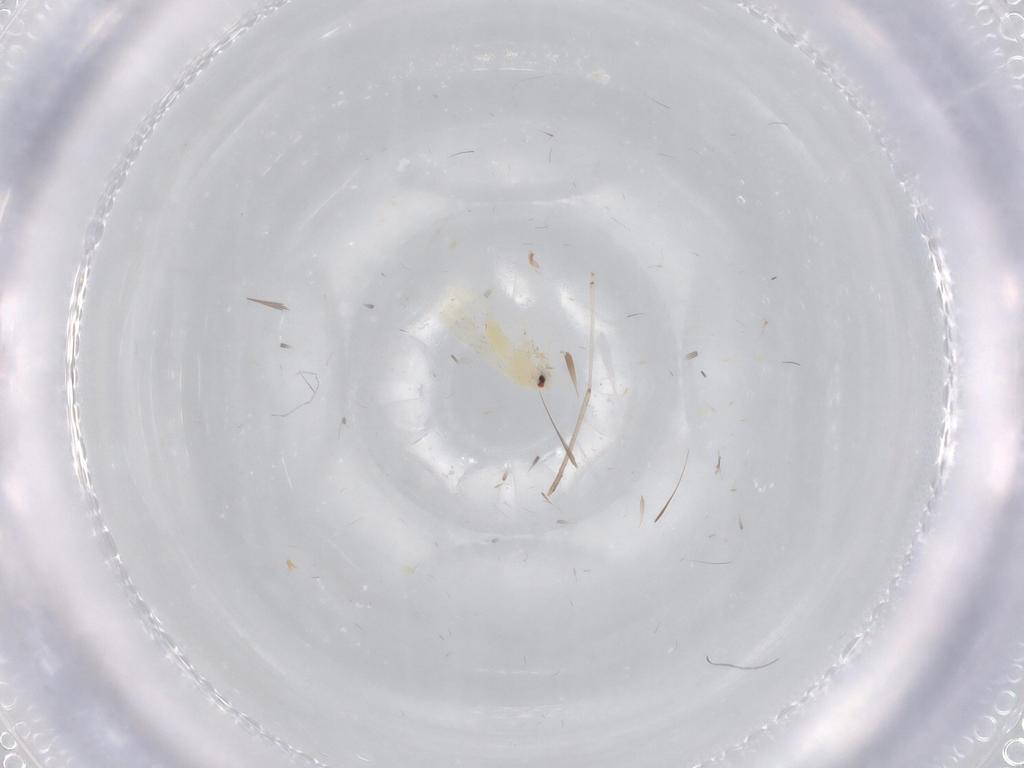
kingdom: Animalia
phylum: Arthropoda
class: Insecta
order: Hemiptera
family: Aleyrodidae
